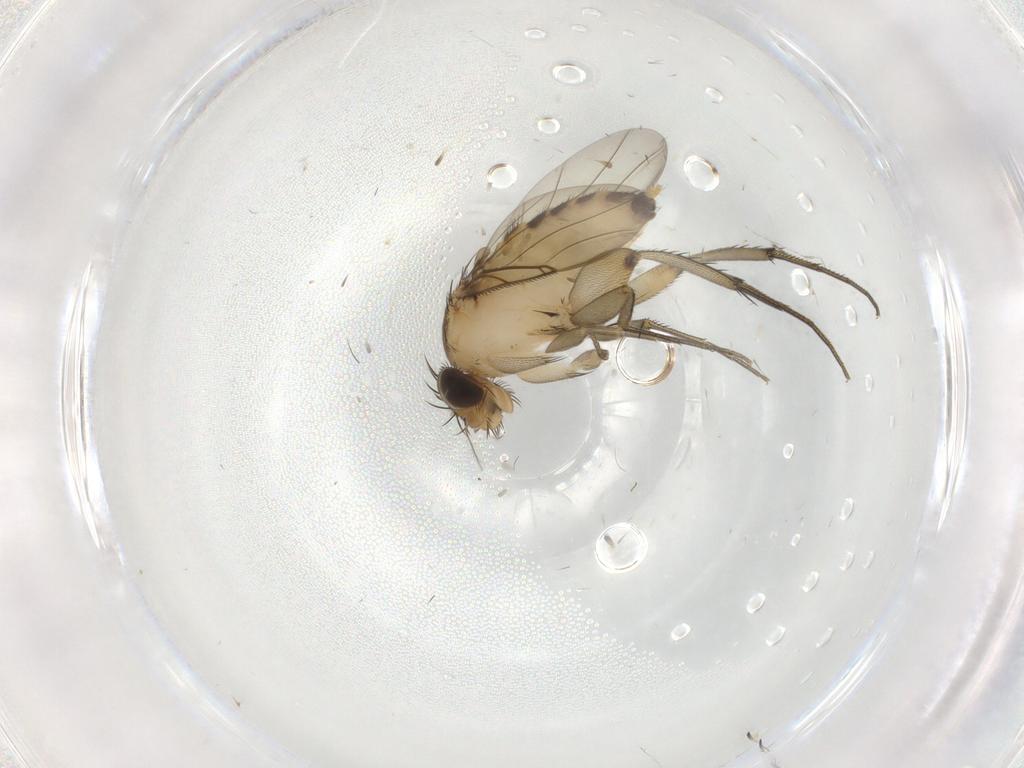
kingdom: Animalia
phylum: Arthropoda
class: Insecta
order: Diptera
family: Phoridae
